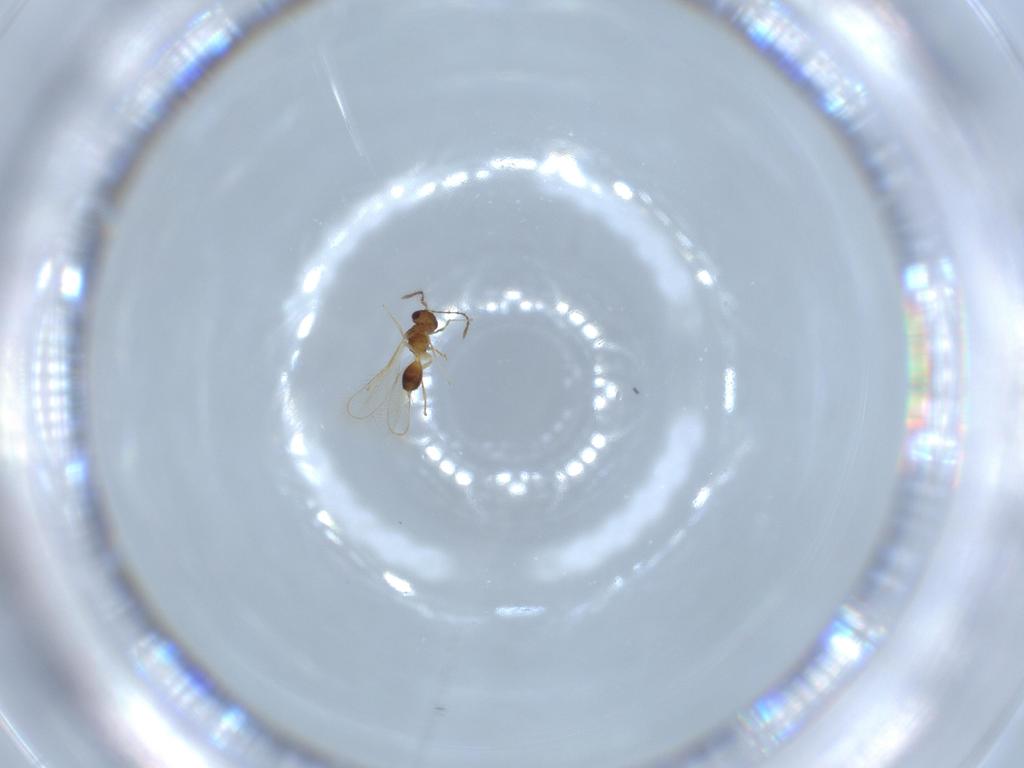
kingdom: Animalia
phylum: Arthropoda
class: Insecta
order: Hymenoptera
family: Aphelinidae
